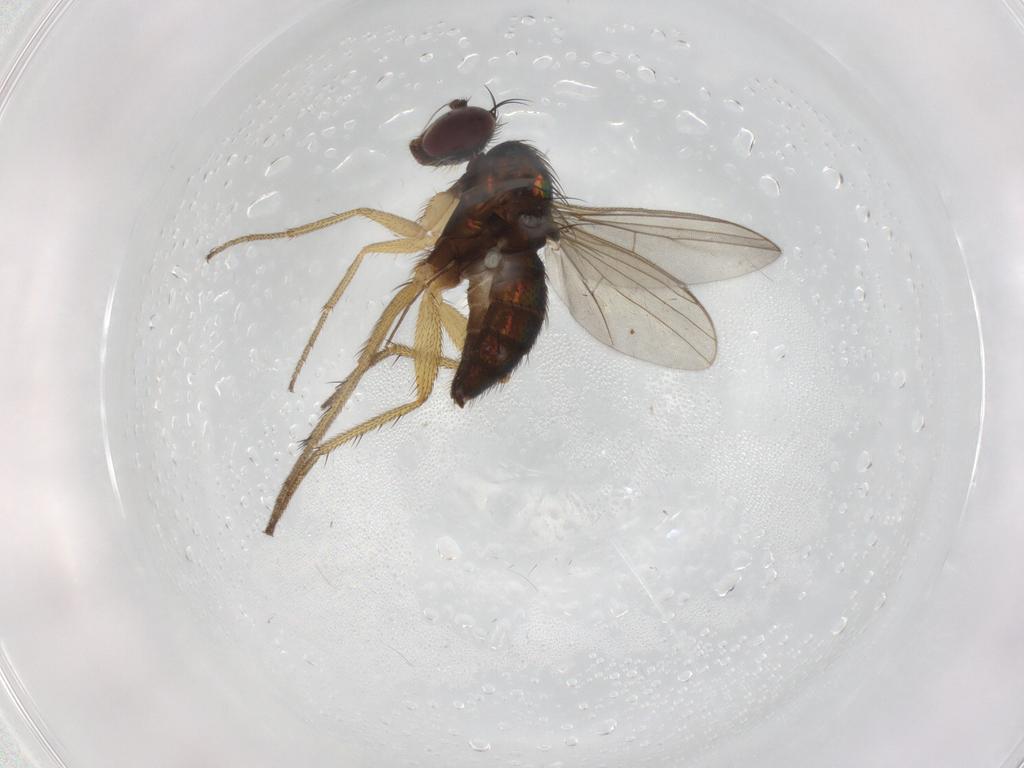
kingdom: Animalia
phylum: Arthropoda
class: Insecta
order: Diptera
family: Dolichopodidae
